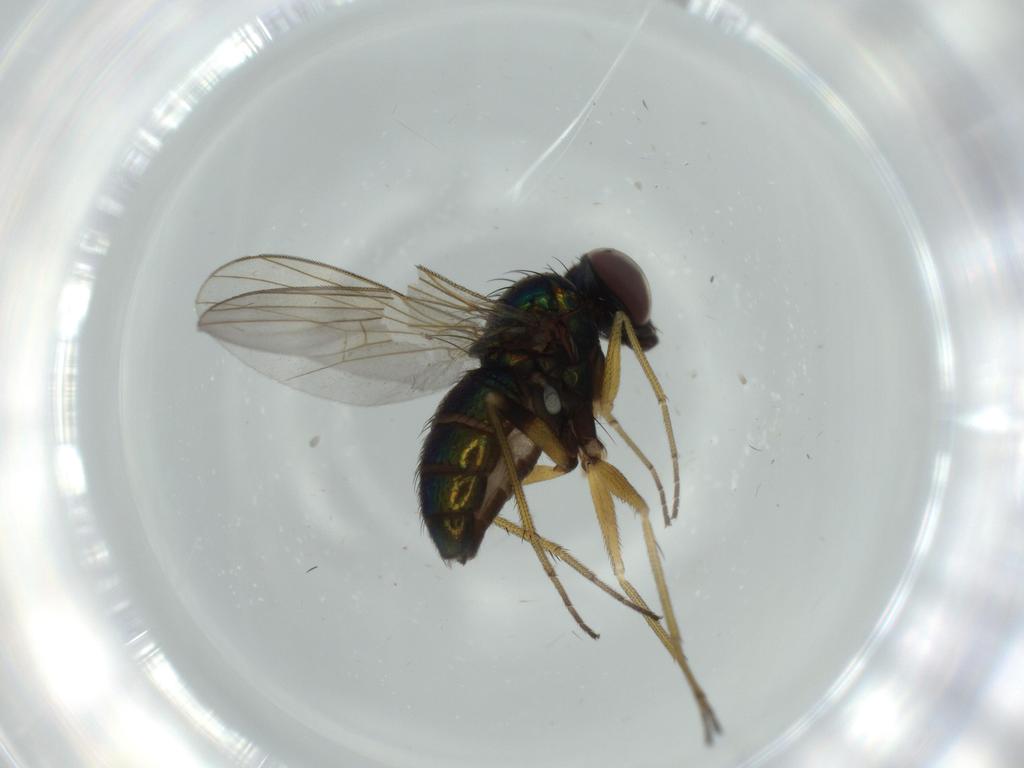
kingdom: Animalia
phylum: Arthropoda
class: Insecta
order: Diptera
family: Dolichopodidae
